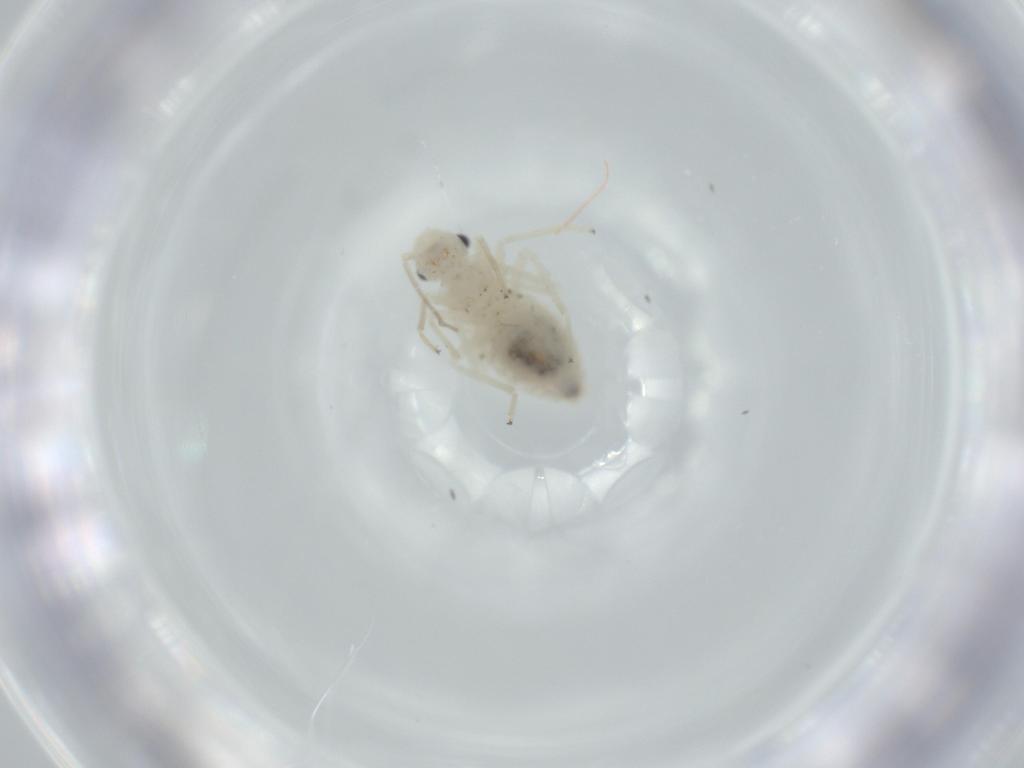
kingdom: Animalia
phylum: Arthropoda
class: Insecta
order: Psocodea
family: Caeciliusidae
